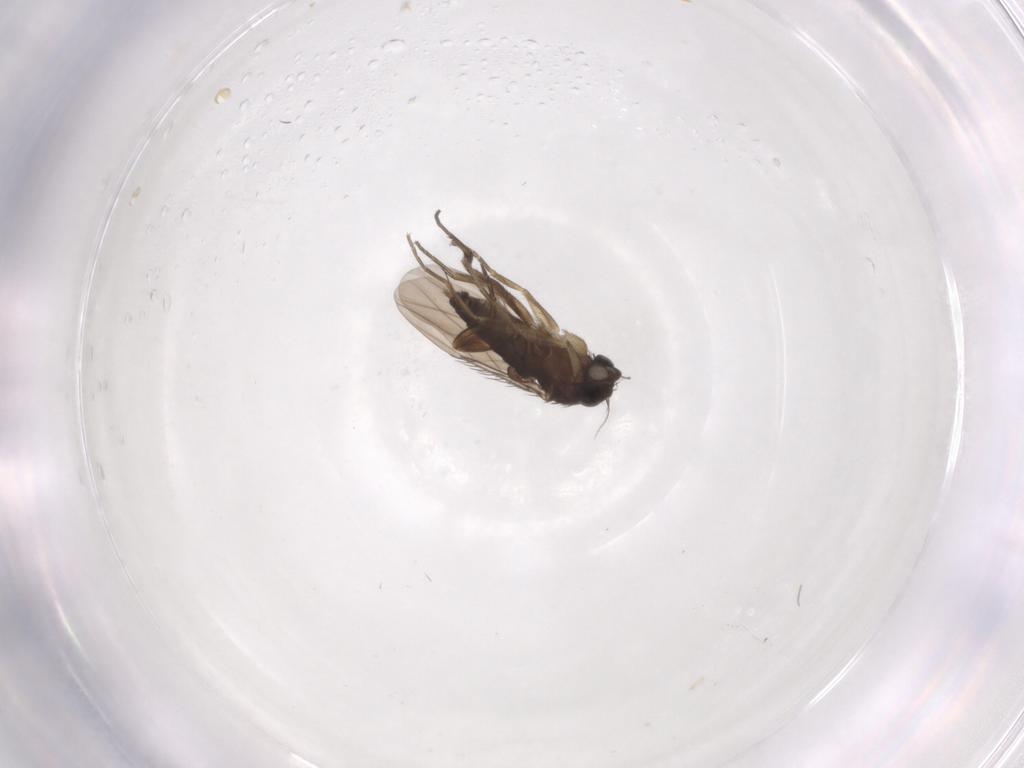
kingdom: Animalia
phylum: Arthropoda
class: Insecta
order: Diptera
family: Phoridae
